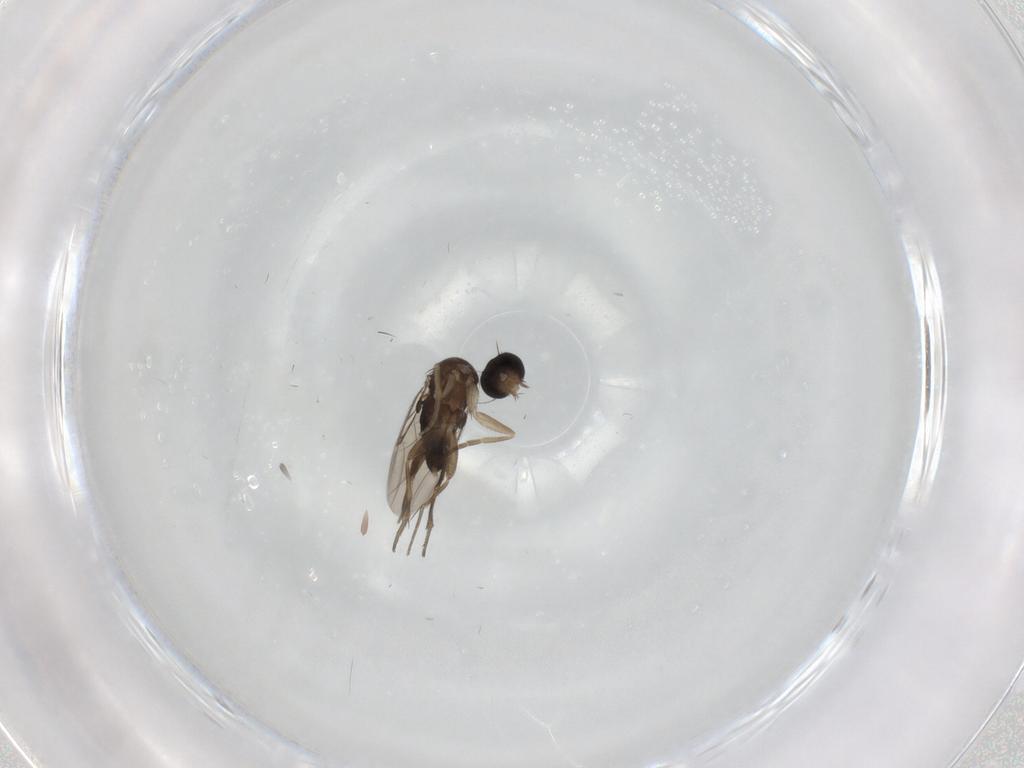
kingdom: Animalia
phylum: Arthropoda
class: Insecta
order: Diptera
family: Phoridae
